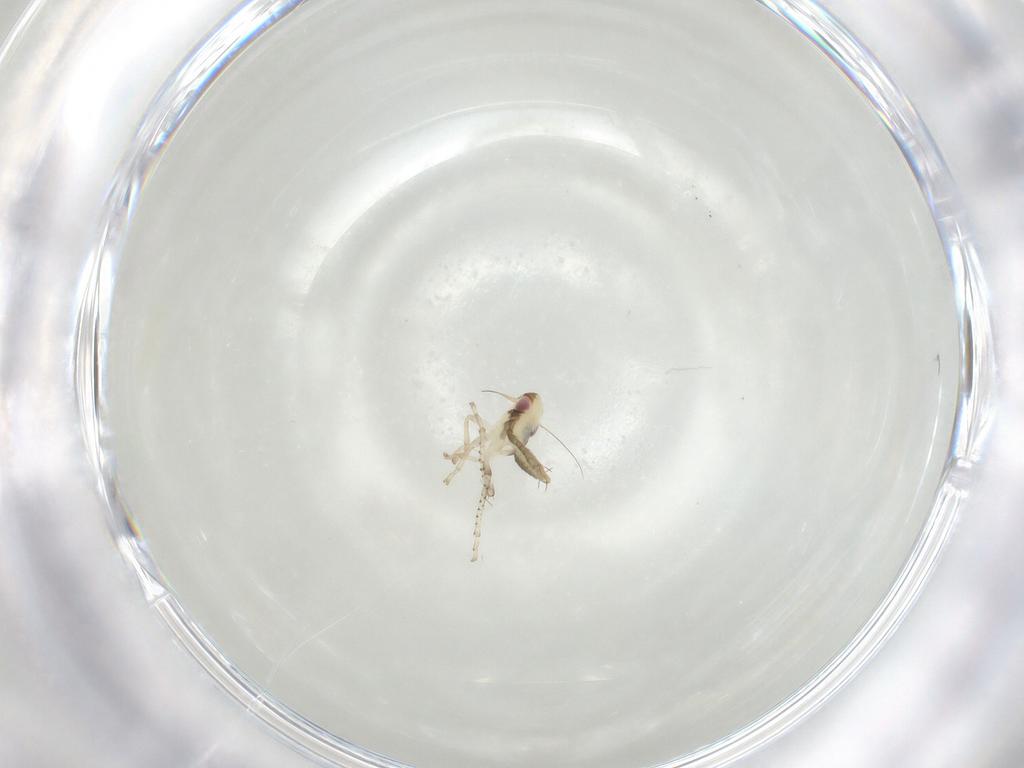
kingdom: Animalia
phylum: Arthropoda
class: Insecta
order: Hemiptera
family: Cicadellidae
